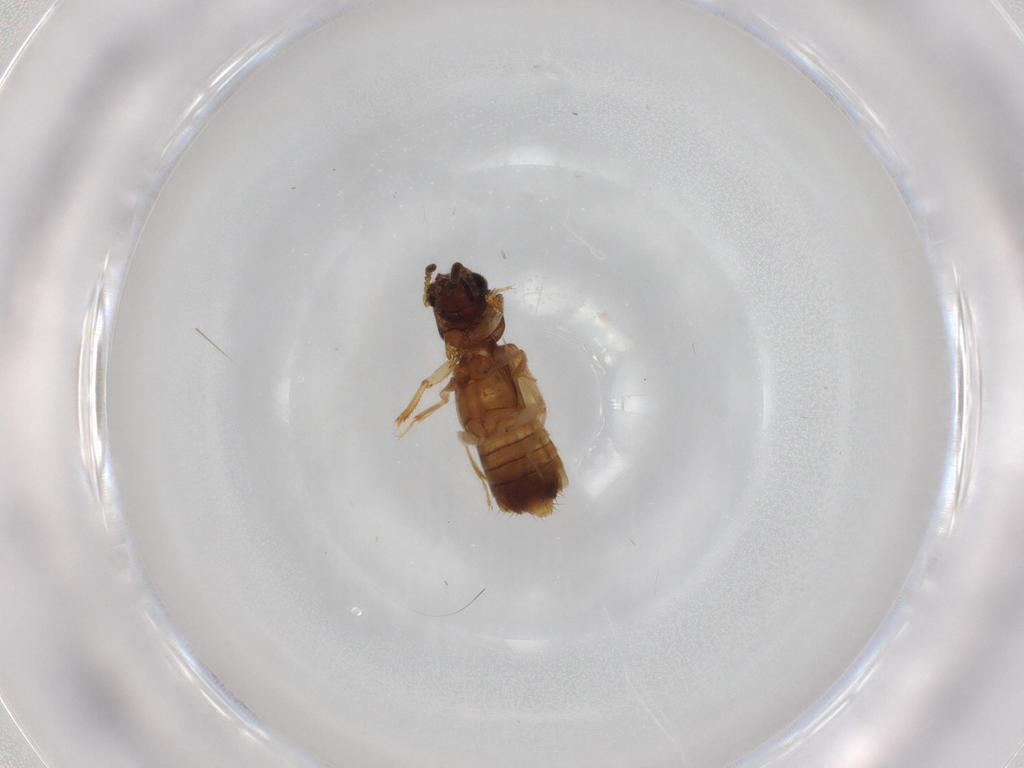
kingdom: Animalia
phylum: Arthropoda
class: Insecta
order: Coleoptera
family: Staphylinidae
